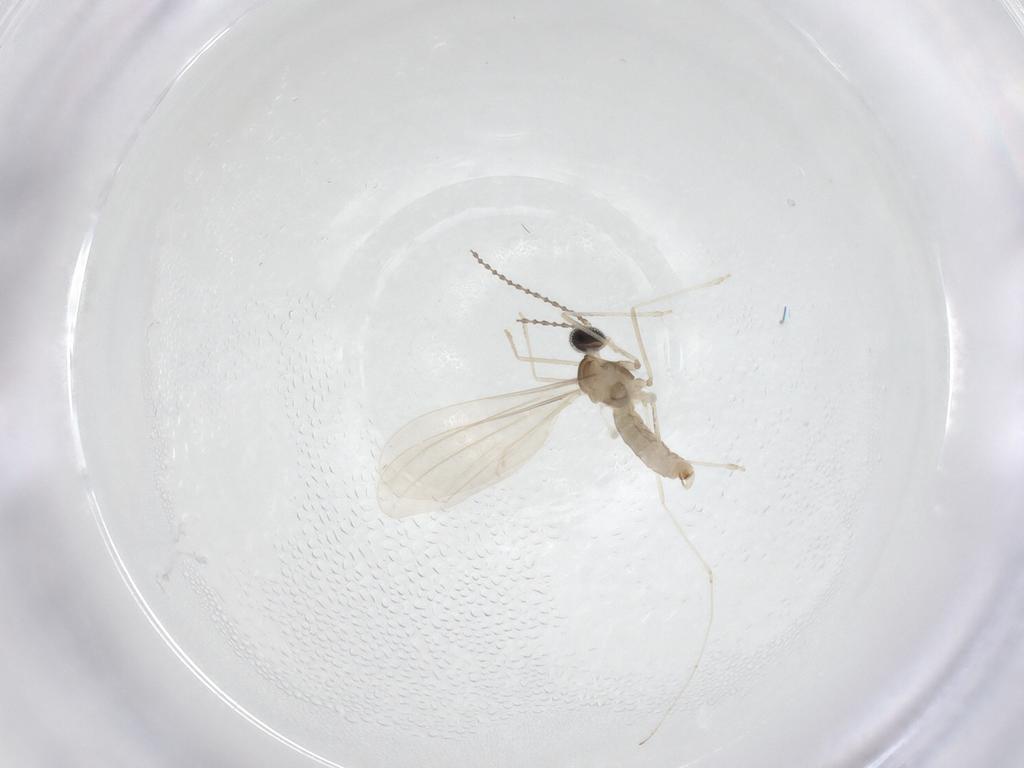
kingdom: Animalia
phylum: Arthropoda
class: Insecta
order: Diptera
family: Cecidomyiidae
